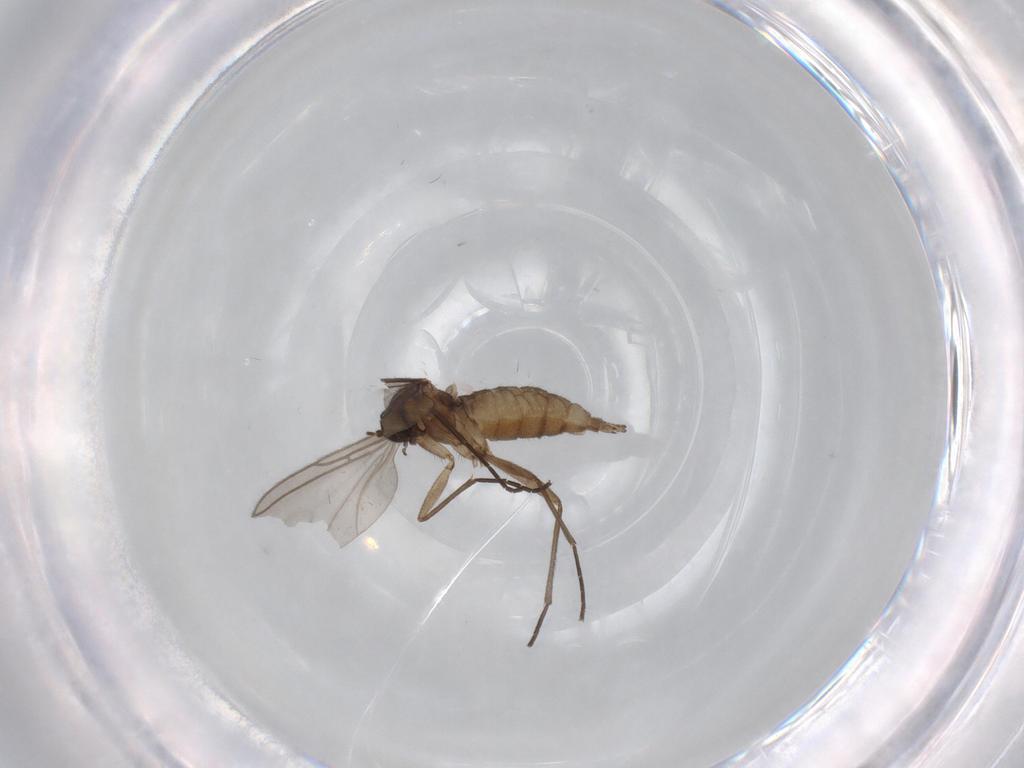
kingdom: Animalia
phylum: Arthropoda
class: Insecta
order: Diptera
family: Sciaridae
